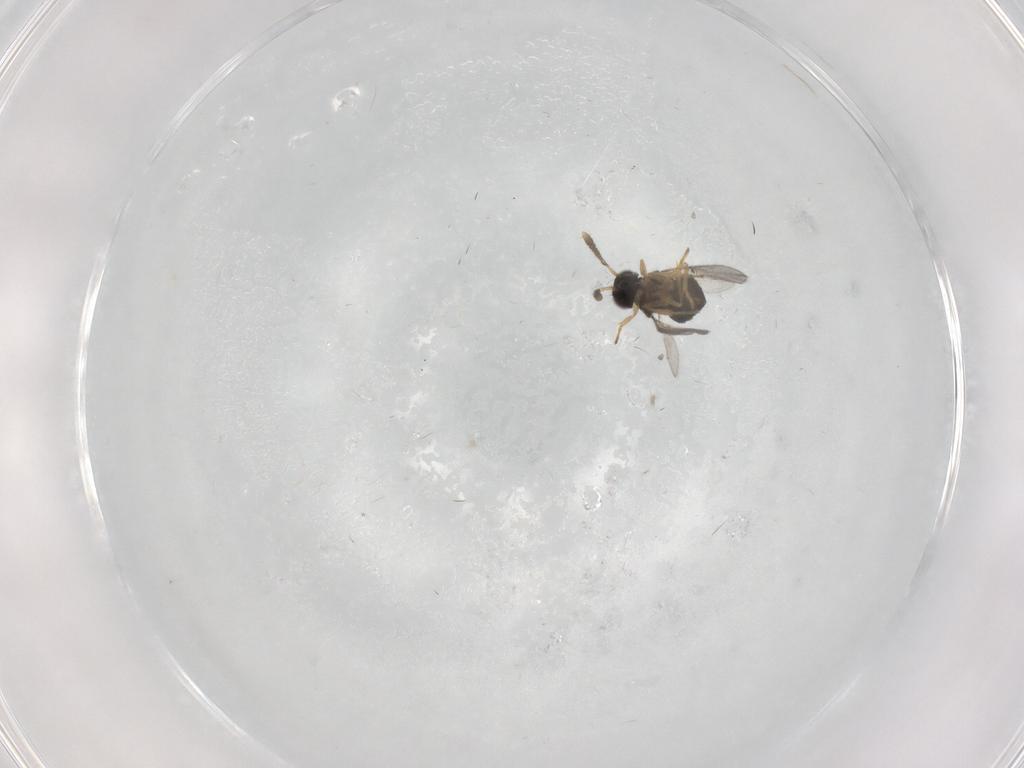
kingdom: Animalia
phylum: Arthropoda
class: Insecta
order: Hymenoptera
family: Encyrtidae
